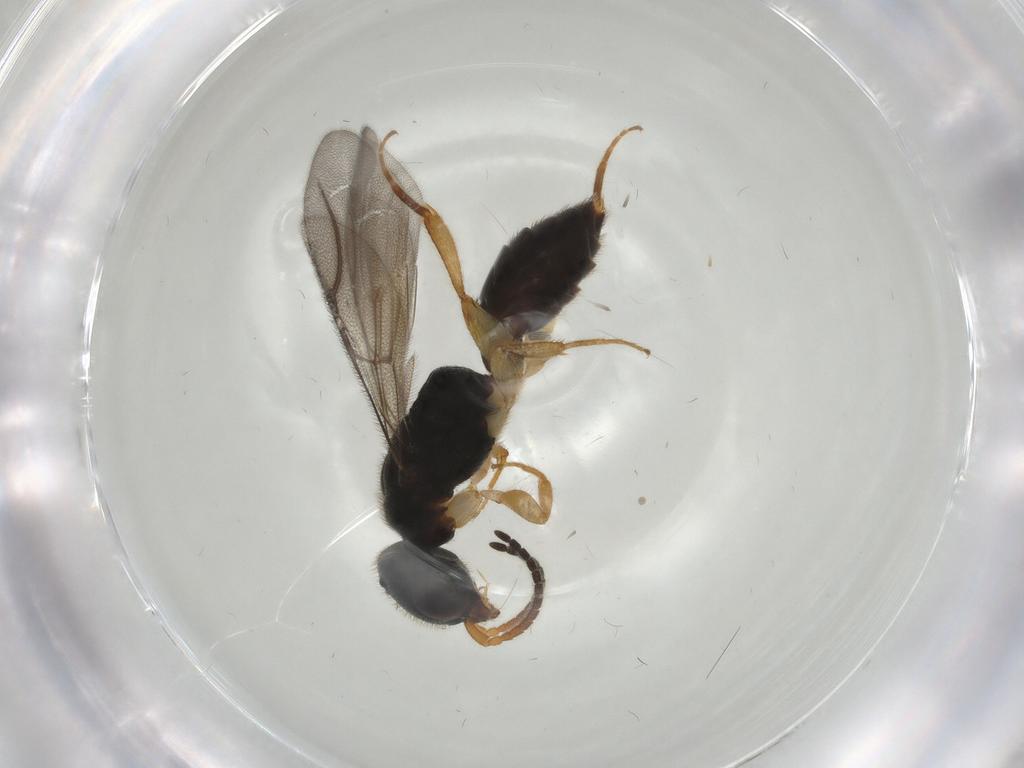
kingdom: Animalia
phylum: Arthropoda
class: Insecta
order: Hymenoptera
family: Bethylidae
